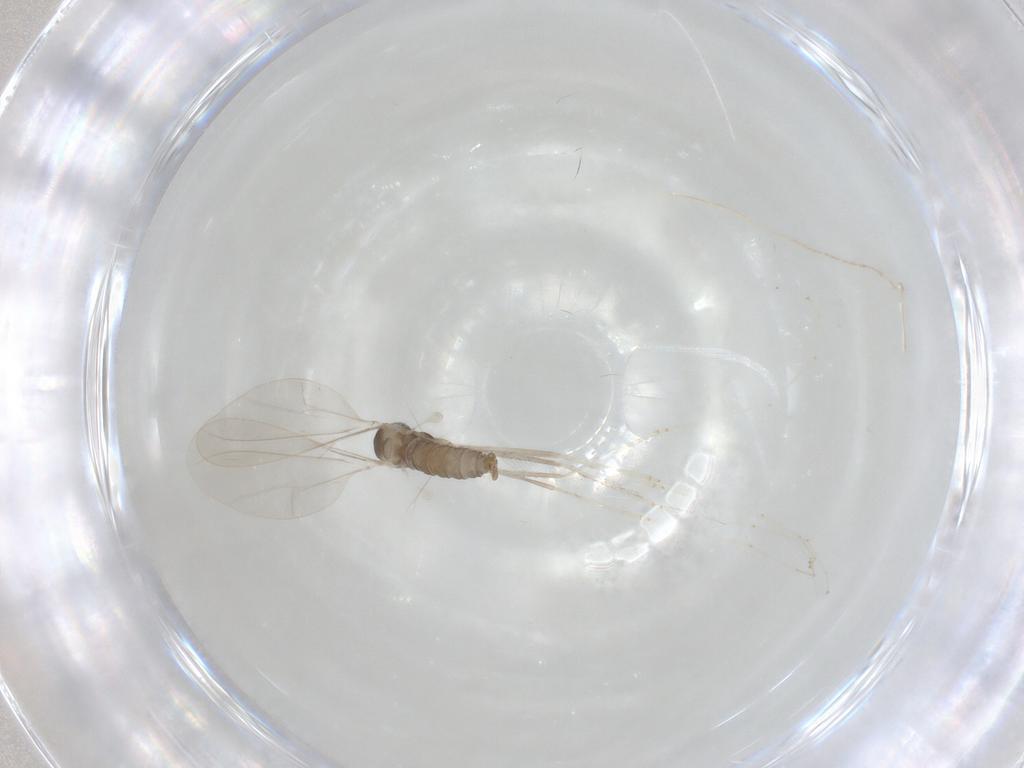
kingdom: Animalia
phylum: Arthropoda
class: Insecta
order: Diptera
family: Cecidomyiidae
